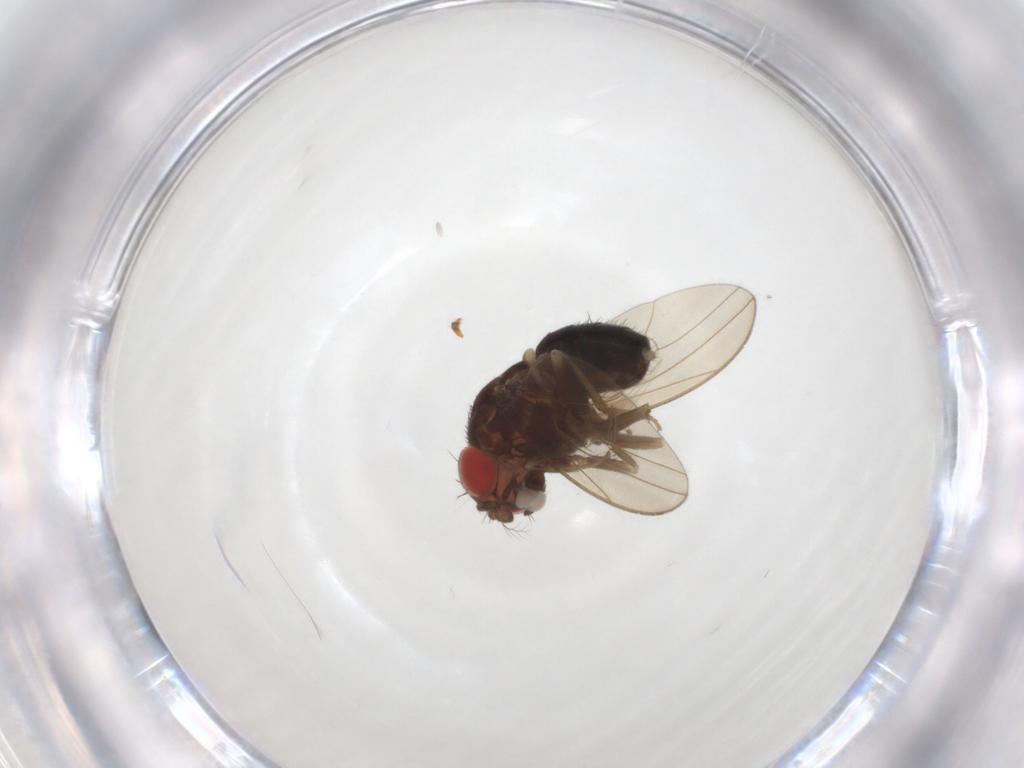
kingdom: Animalia
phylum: Arthropoda
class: Insecta
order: Diptera
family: Drosophilidae
